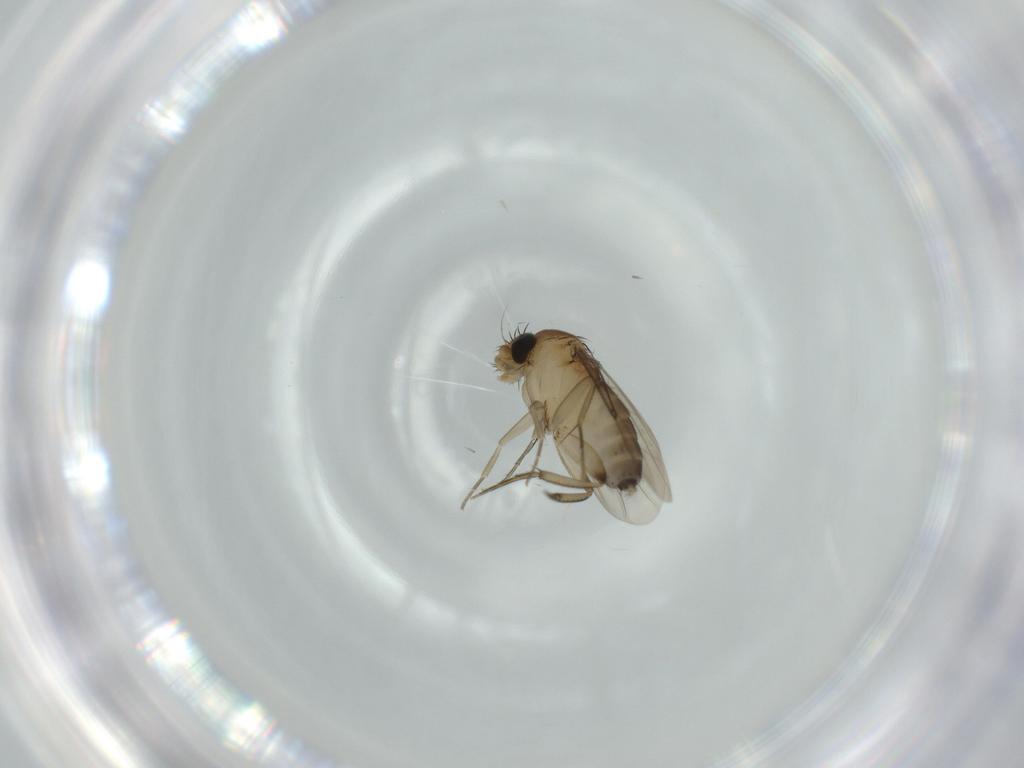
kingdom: Animalia
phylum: Arthropoda
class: Insecta
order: Diptera
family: Phoridae
